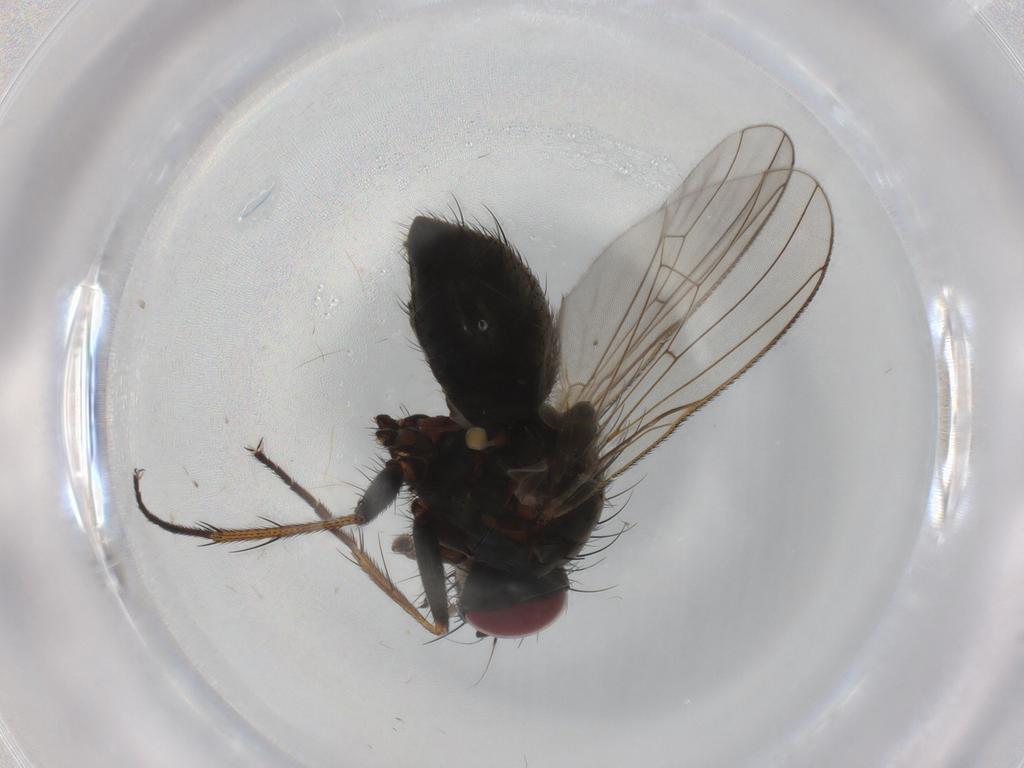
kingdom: Animalia
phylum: Arthropoda
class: Insecta
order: Diptera
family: Muscidae
